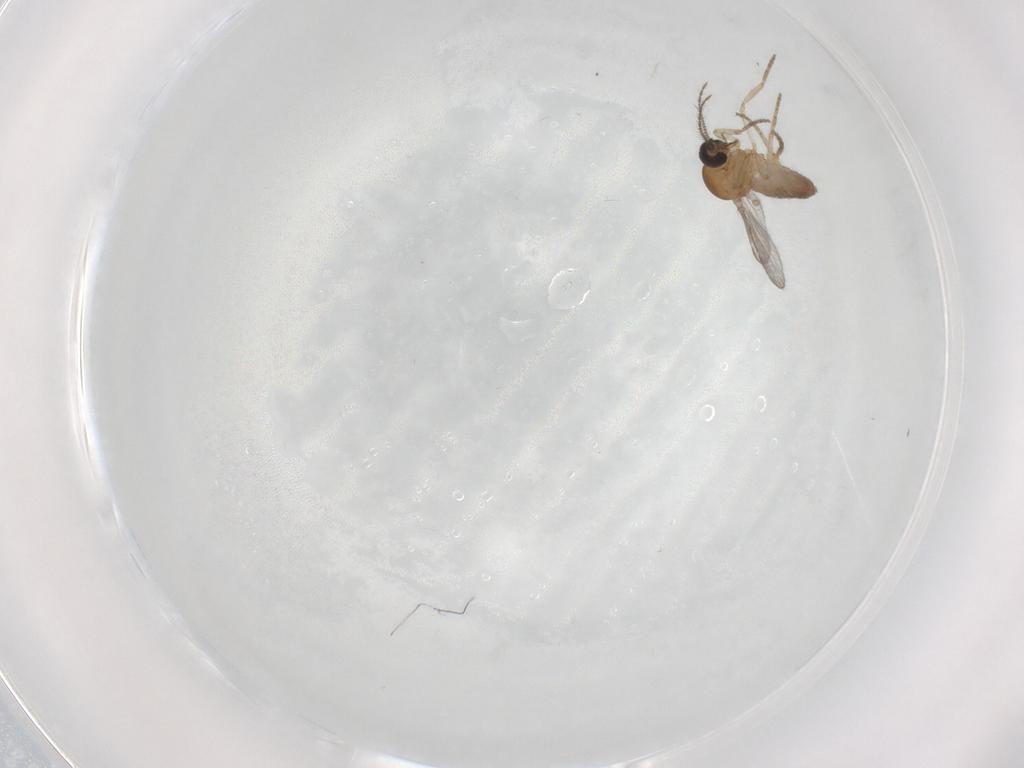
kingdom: Animalia
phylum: Arthropoda
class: Insecta
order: Diptera
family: Ceratopogonidae
